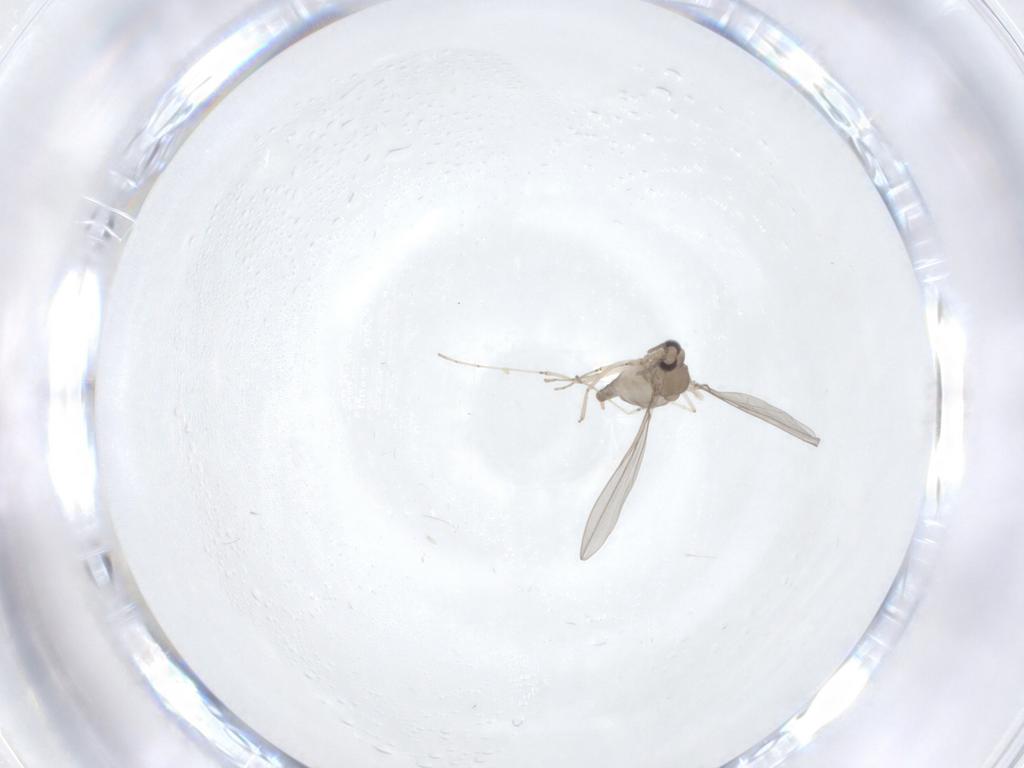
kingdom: Animalia
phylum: Arthropoda
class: Insecta
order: Diptera
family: Cecidomyiidae
